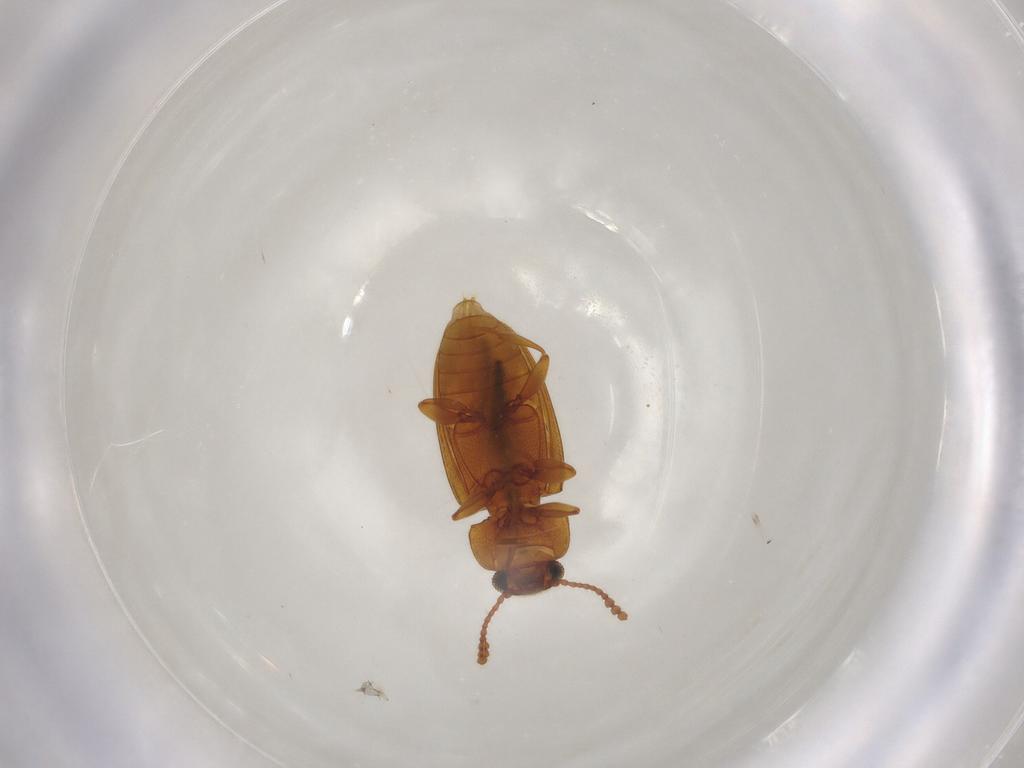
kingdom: Animalia
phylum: Arthropoda
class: Insecta
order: Coleoptera
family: Erotylidae
